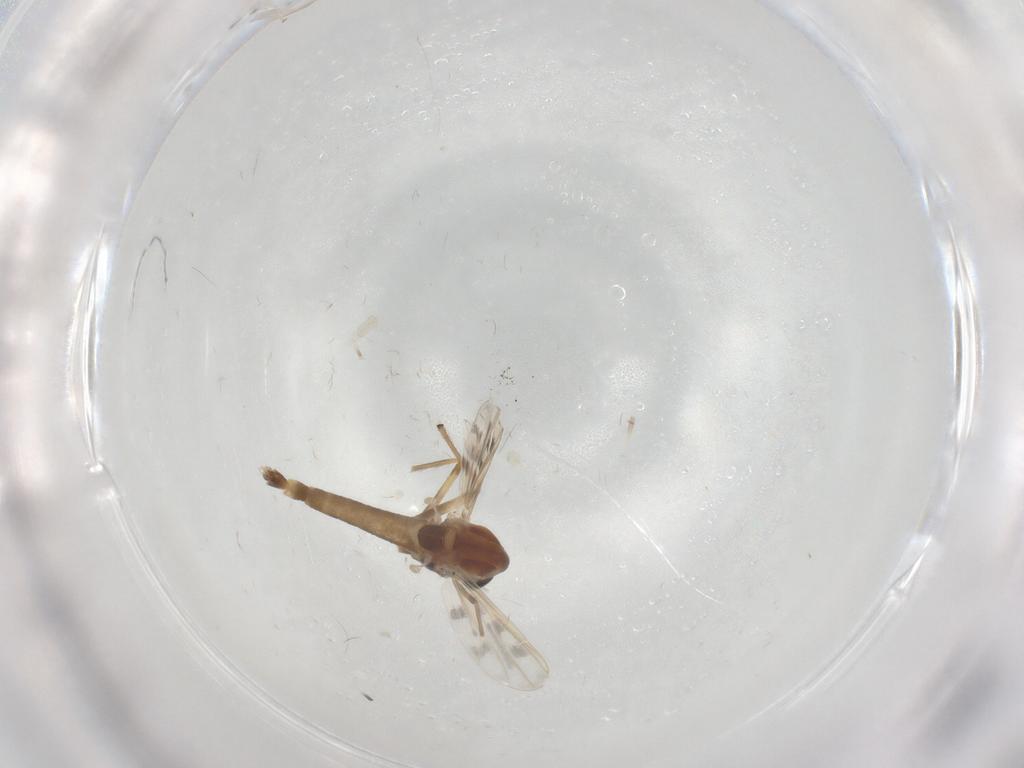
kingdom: Animalia
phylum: Arthropoda
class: Insecta
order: Diptera
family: Chironomidae
